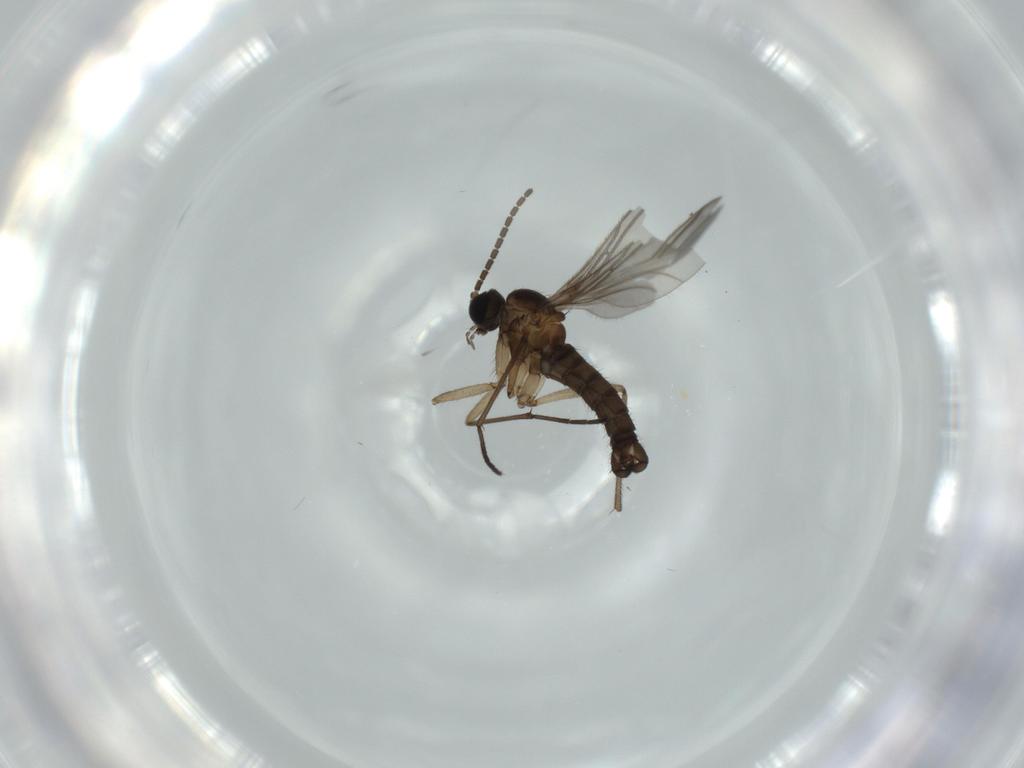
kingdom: Animalia
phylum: Arthropoda
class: Insecta
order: Diptera
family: Sciaridae
